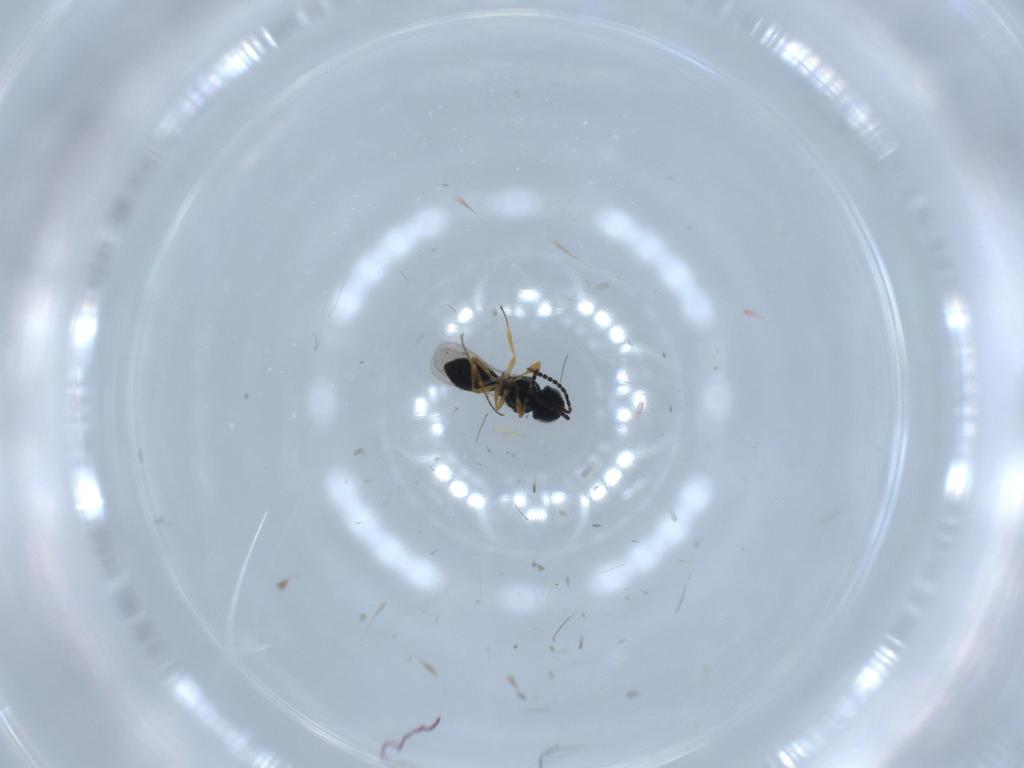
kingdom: Animalia
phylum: Arthropoda
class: Insecta
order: Hymenoptera
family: Scelionidae
